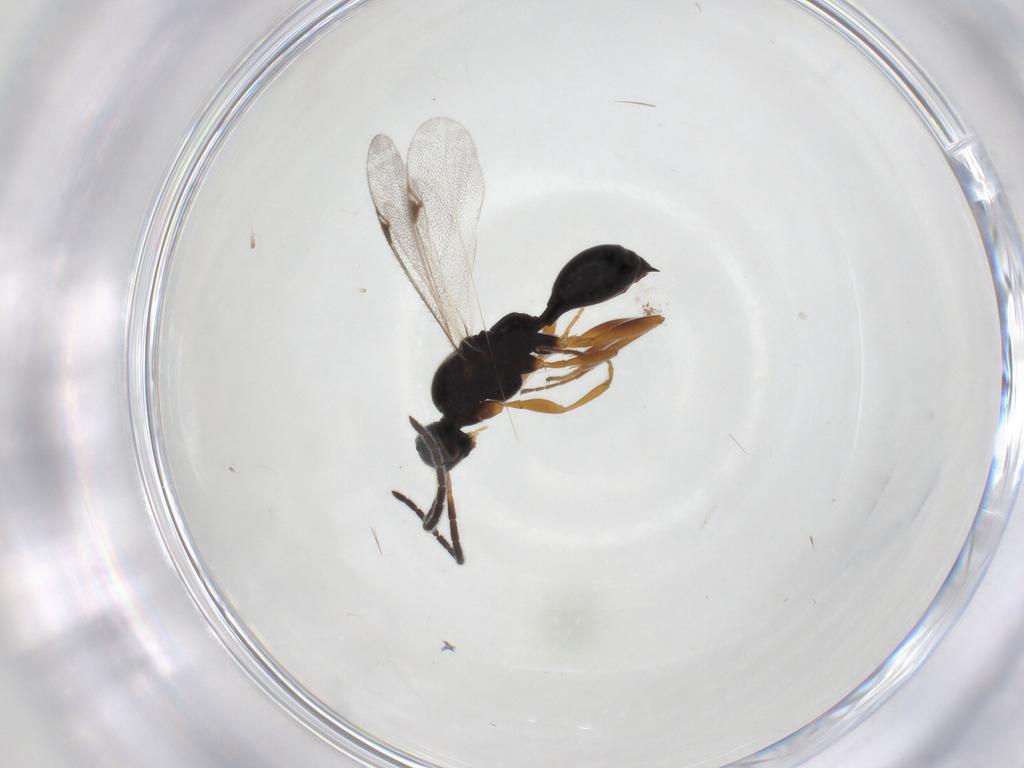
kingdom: Animalia
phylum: Arthropoda
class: Insecta
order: Hymenoptera
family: Proctotrupidae
